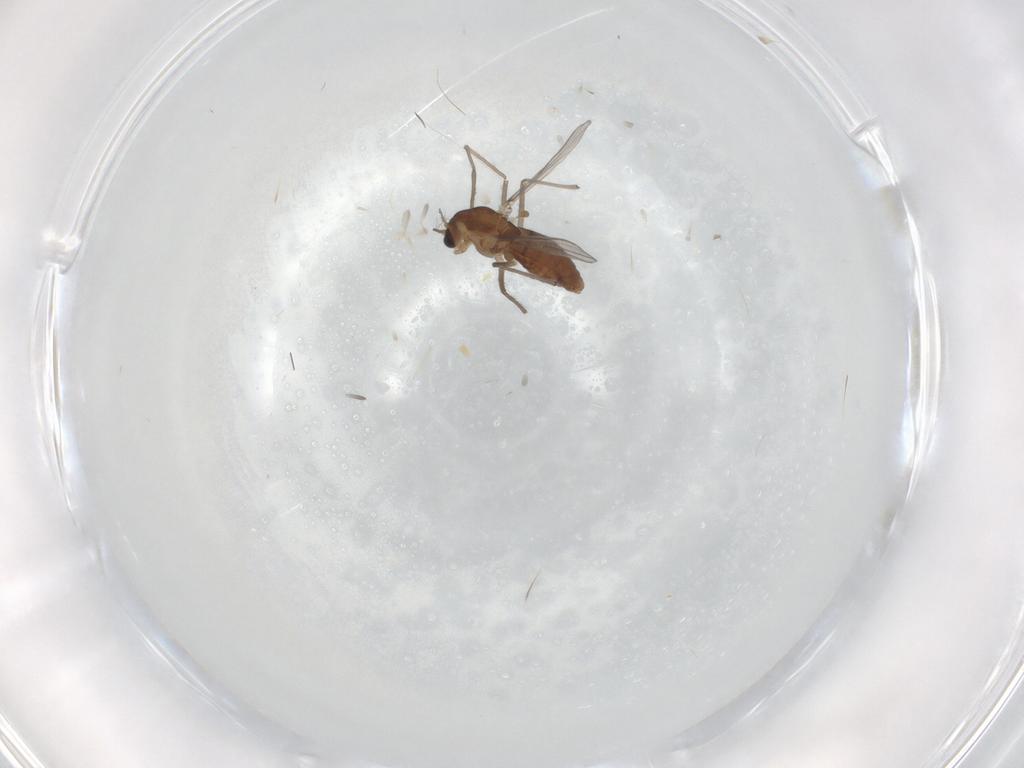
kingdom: Animalia
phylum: Arthropoda
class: Insecta
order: Diptera
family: Chironomidae
